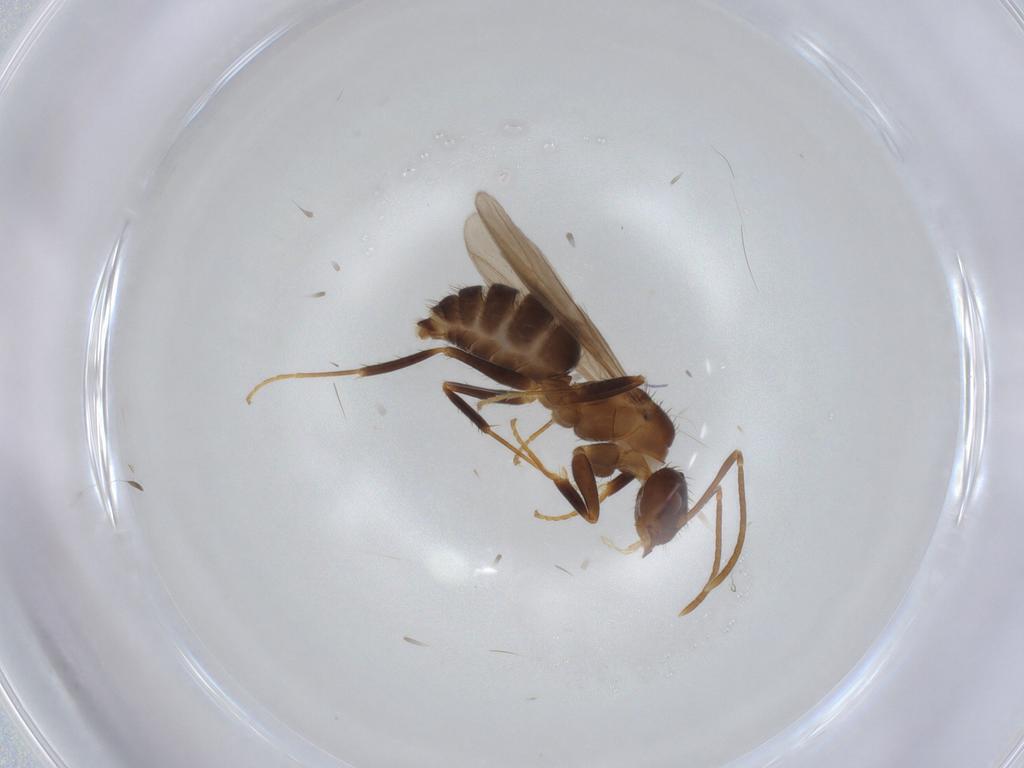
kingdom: Animalia
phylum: Arthropoda
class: Insecta
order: Hymenoptera
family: Formicidae
